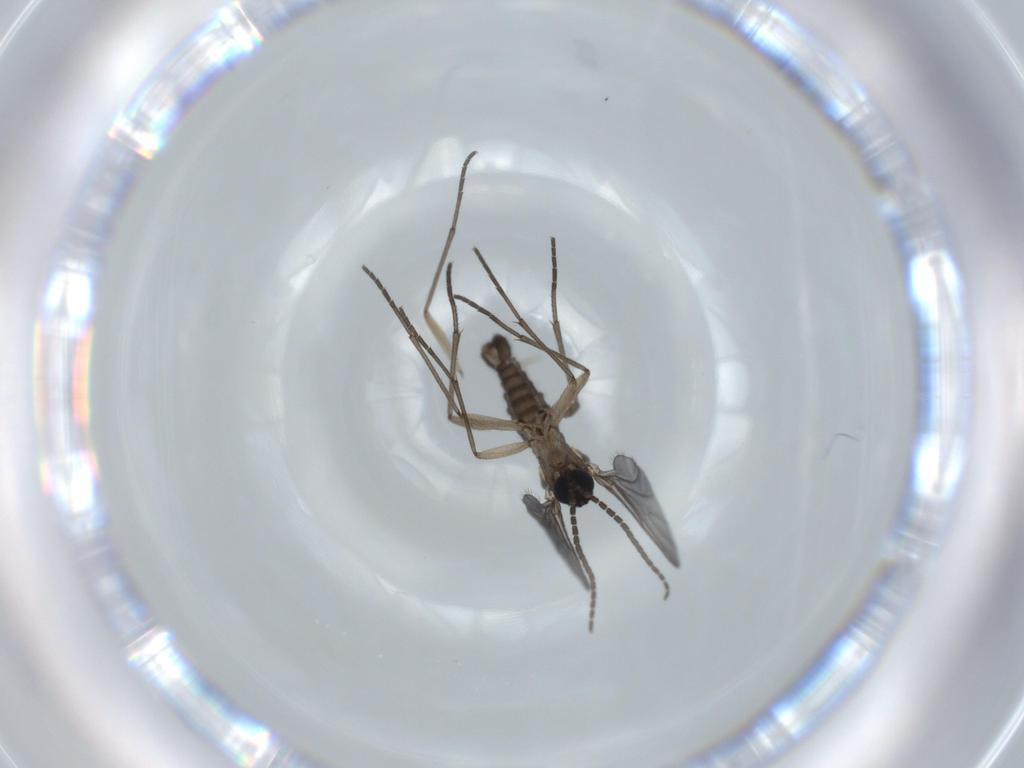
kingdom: Animalia
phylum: Arthropoda
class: Insecta
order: Diptera
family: Sciaridae
